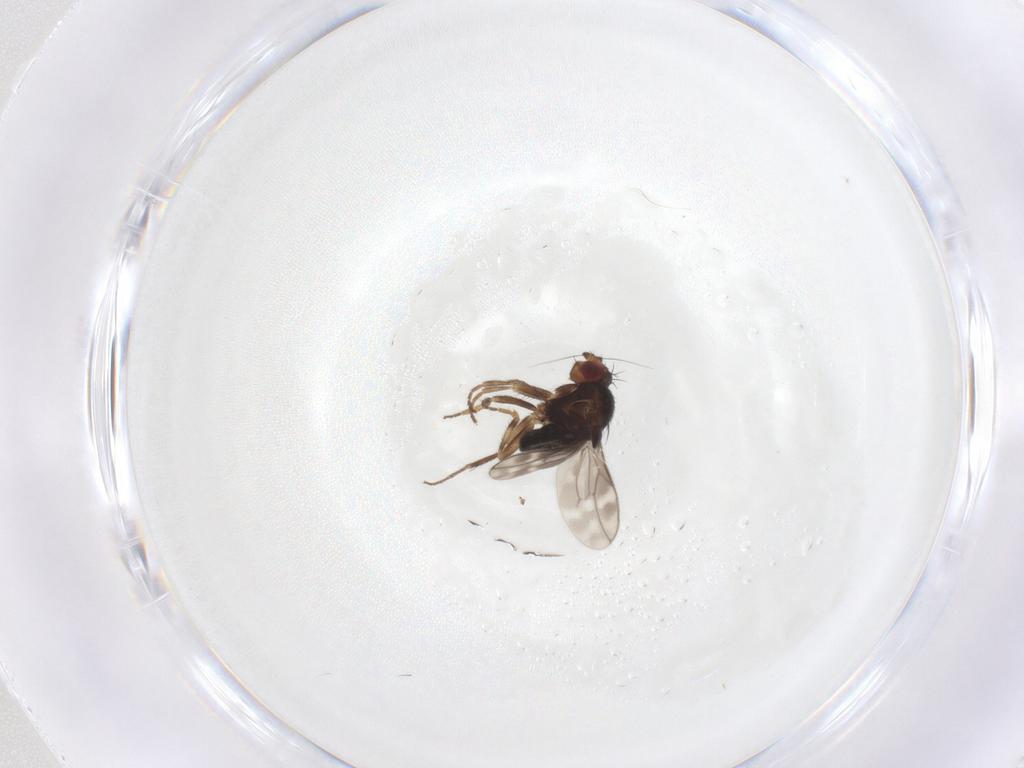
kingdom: Animalia
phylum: Arthropoda
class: Insecta
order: Diptera
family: Sphaeroceridae
